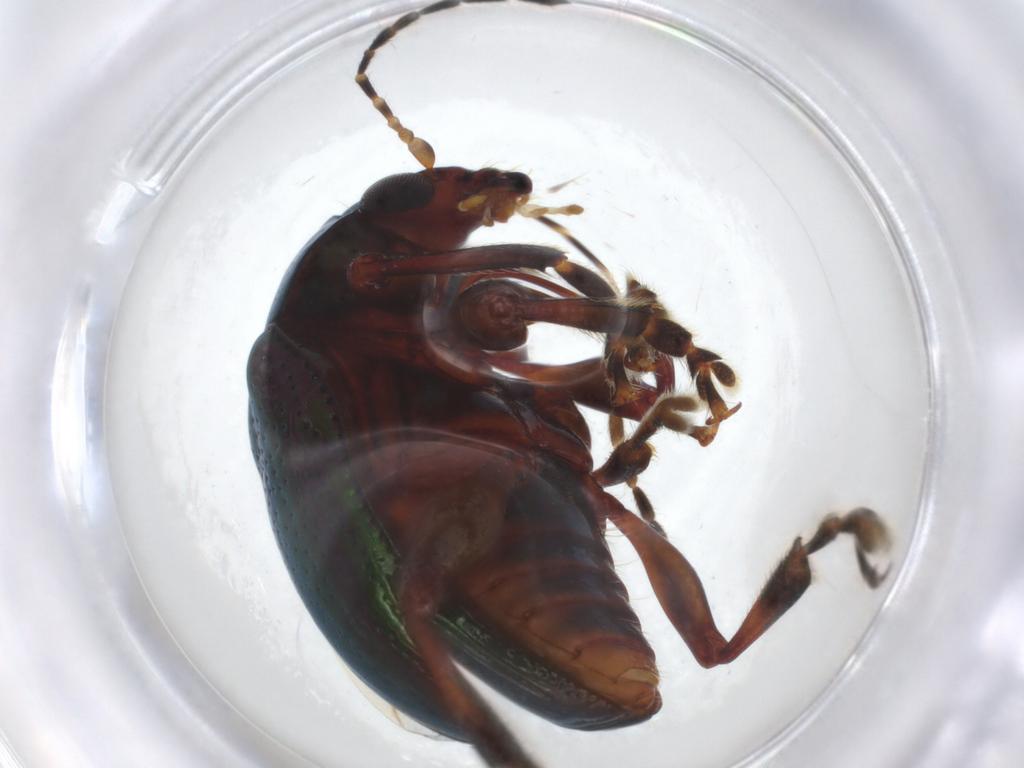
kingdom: Animalia
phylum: Arthropoda
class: Insecta
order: Coleoptera
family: Chrysomelidae
